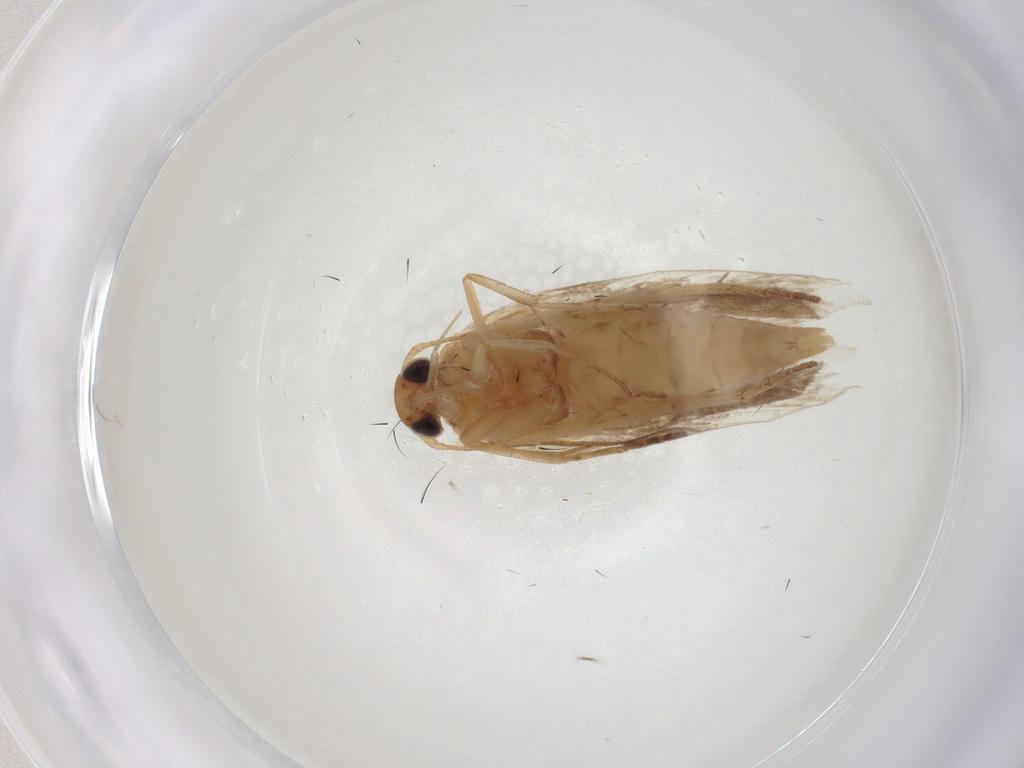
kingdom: Animalia
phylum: Arthropoda
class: Insecta
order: Lepidoptera
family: Gelechiidae
